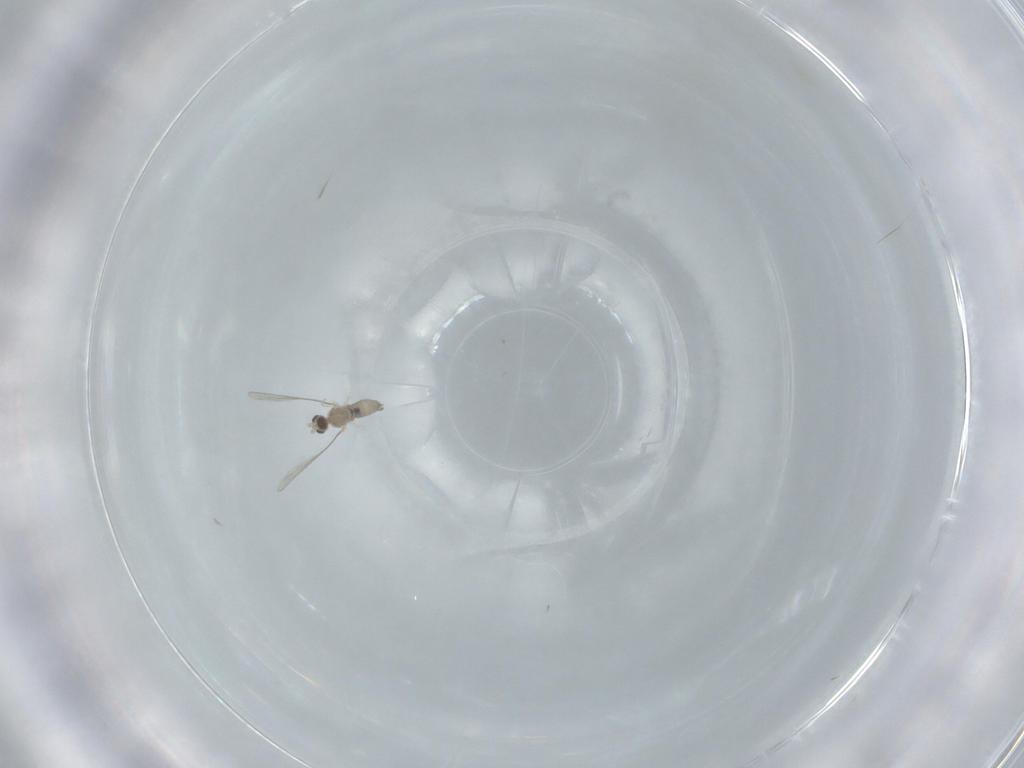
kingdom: Animalia
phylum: Arthropoda
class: Insecta
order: Diptera
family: Cecidomyiidae
